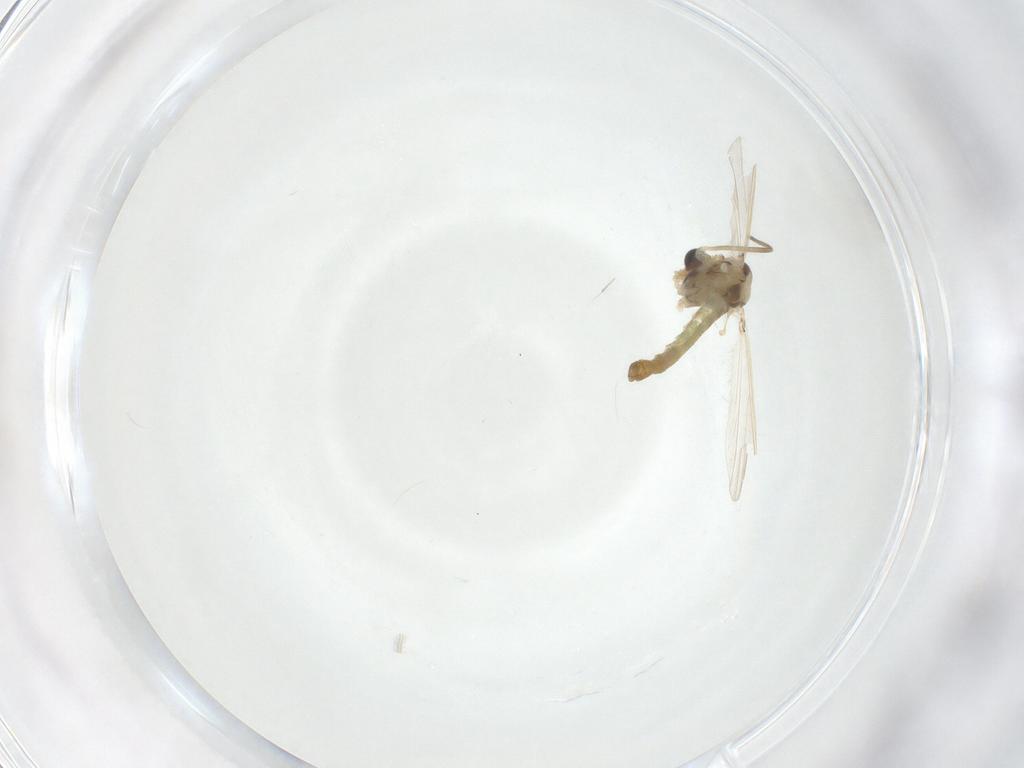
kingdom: Animalia
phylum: Arthropoda
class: Insecta
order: Diptera
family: Chironomidae
